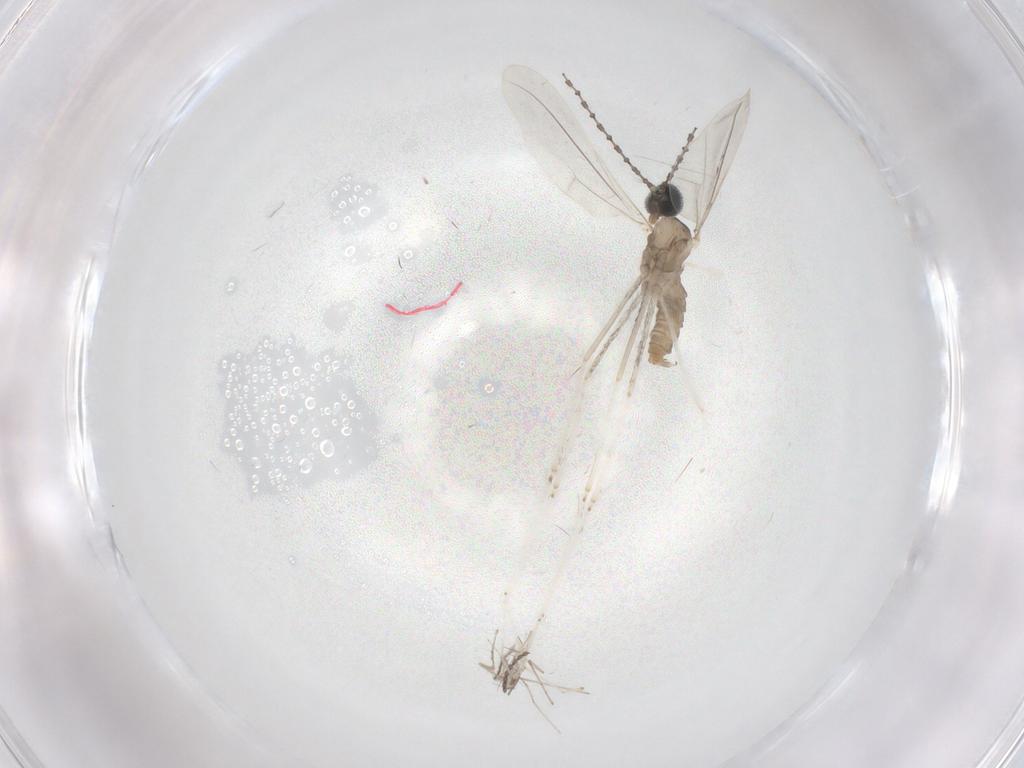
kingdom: Animalia
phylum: Arthropoda
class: Insecta
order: Diptera
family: Cecidomyiidae
